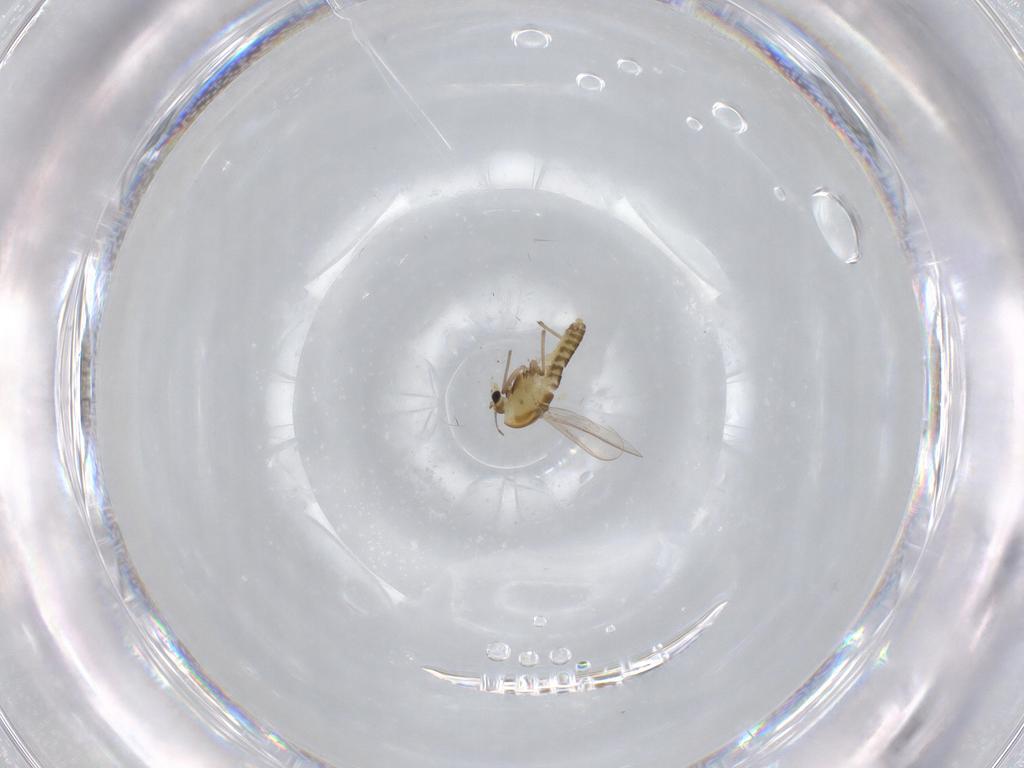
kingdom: Animalia
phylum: Arthropoda
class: Insecta
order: Diptera
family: Chironomidae
